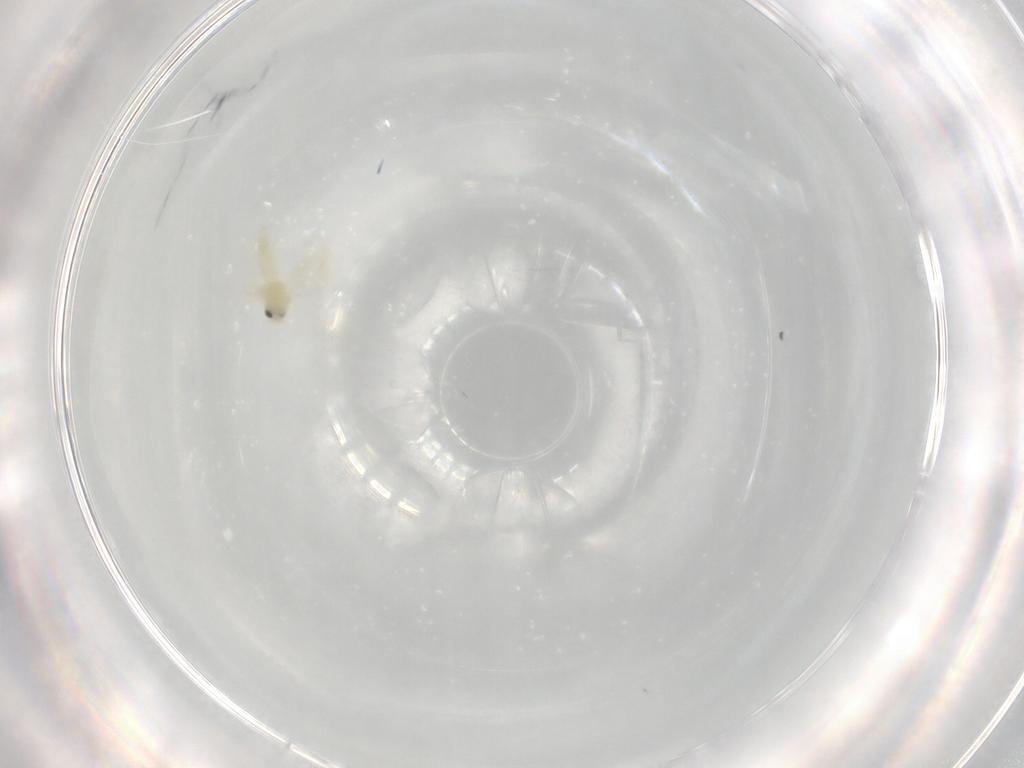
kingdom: Animalia
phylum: Arthropoda
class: Insecta
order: Hemiptera
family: Aleyrodidae
